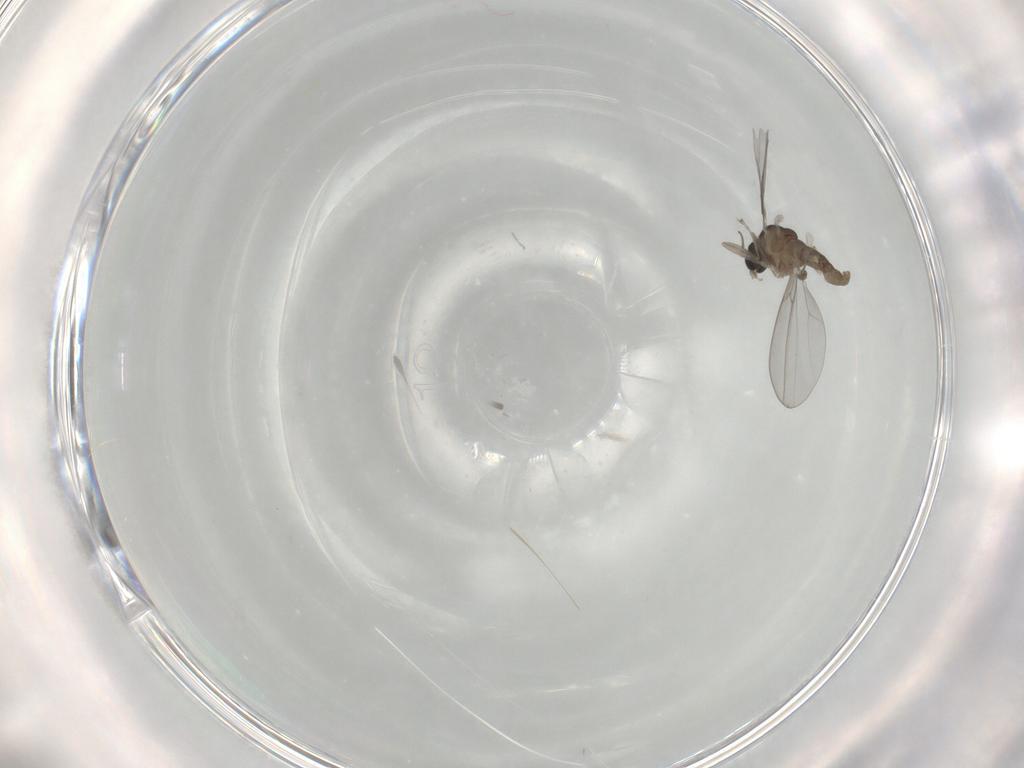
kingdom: Animalia
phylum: Arthropoda
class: Insecta
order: Diptera
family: Cecidomyiidae
